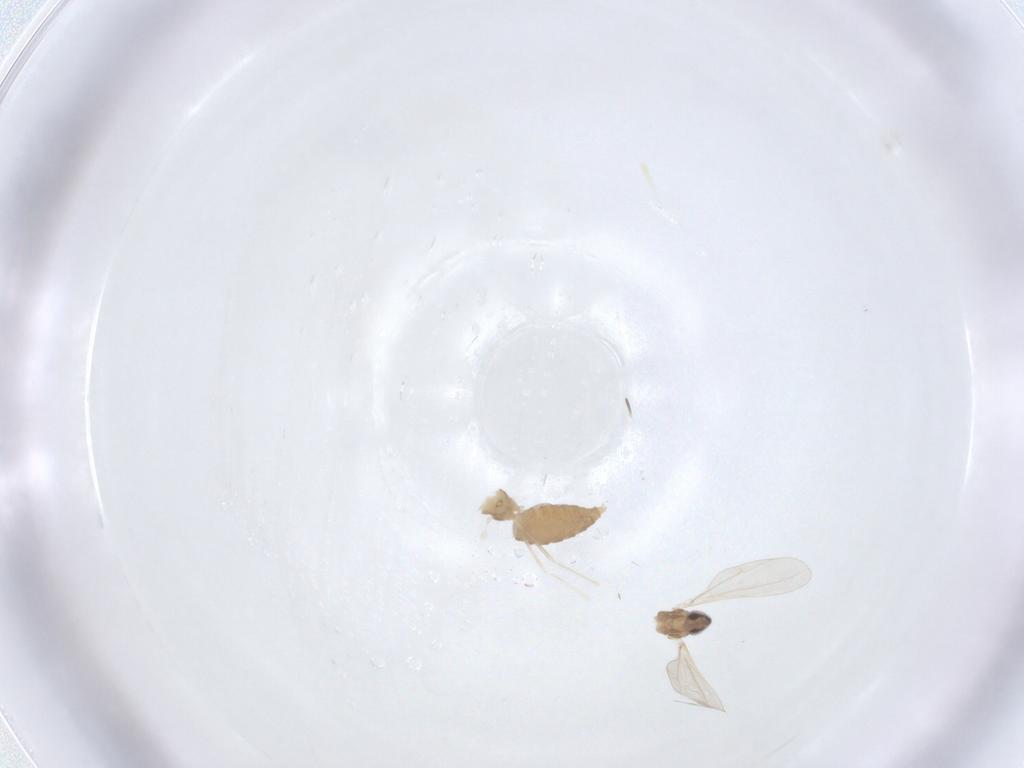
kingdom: Animalia
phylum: Arthropoda
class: Insecta
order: Diptera
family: Cecidomyiidae
